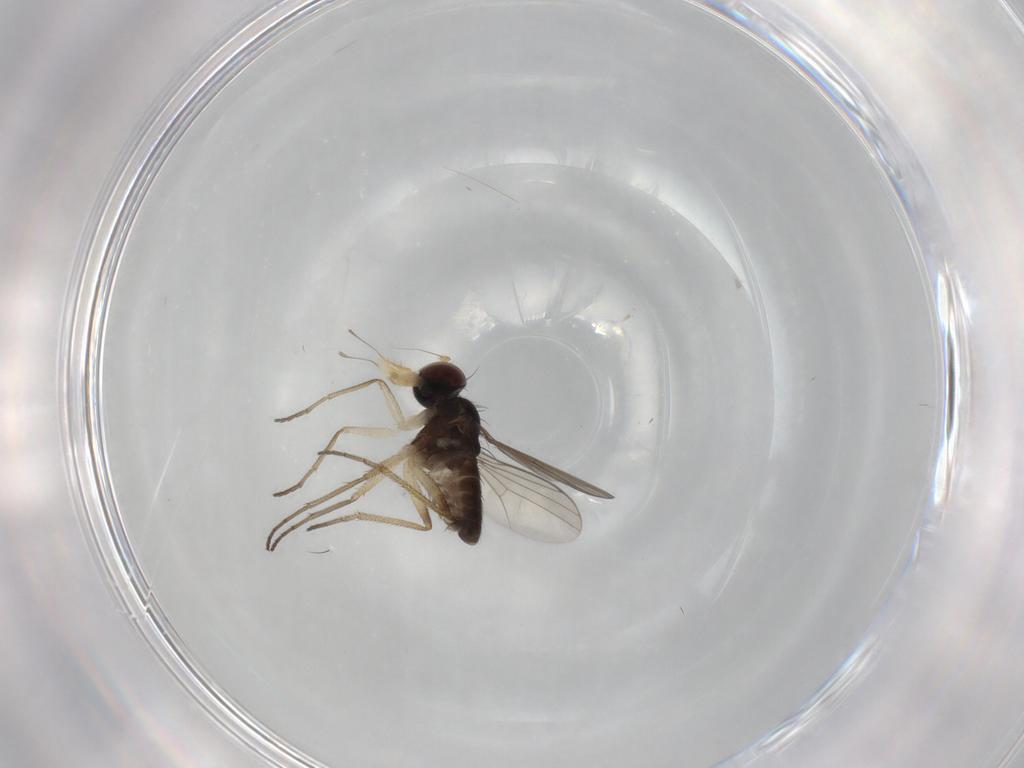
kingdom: Animalia
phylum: Arthropoda
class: Insecta
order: Diptera
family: Dolichopodidae
